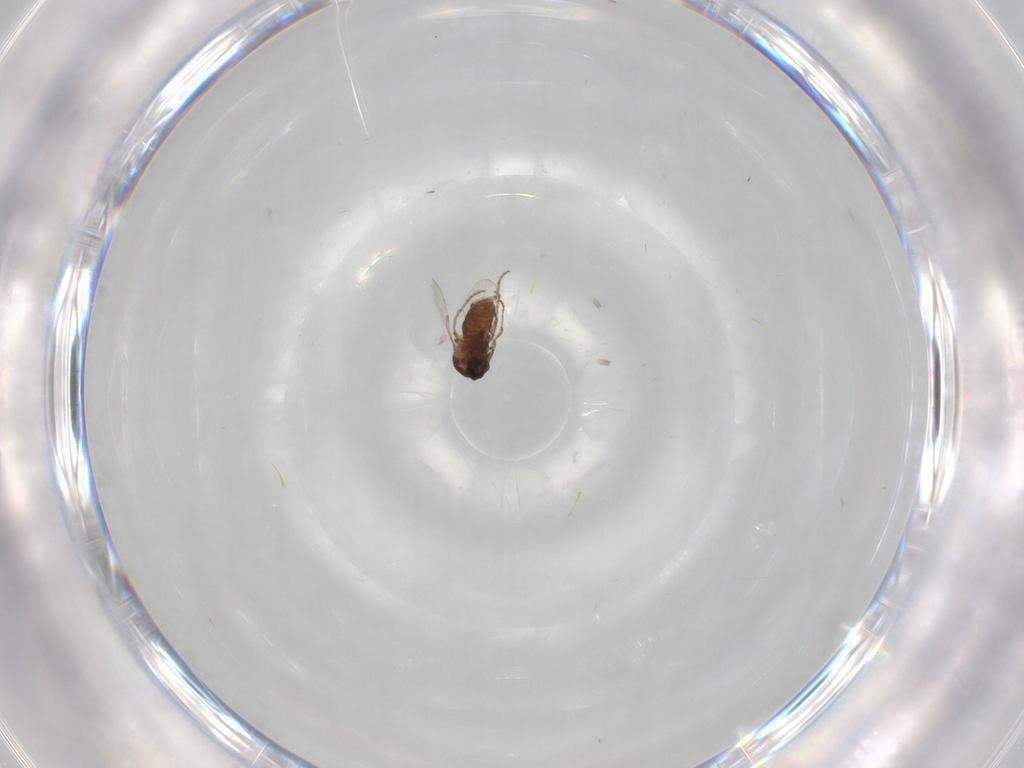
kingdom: Animalia
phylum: Arthropoda
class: Insecta
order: Diptera
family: Ceratopogonidae
